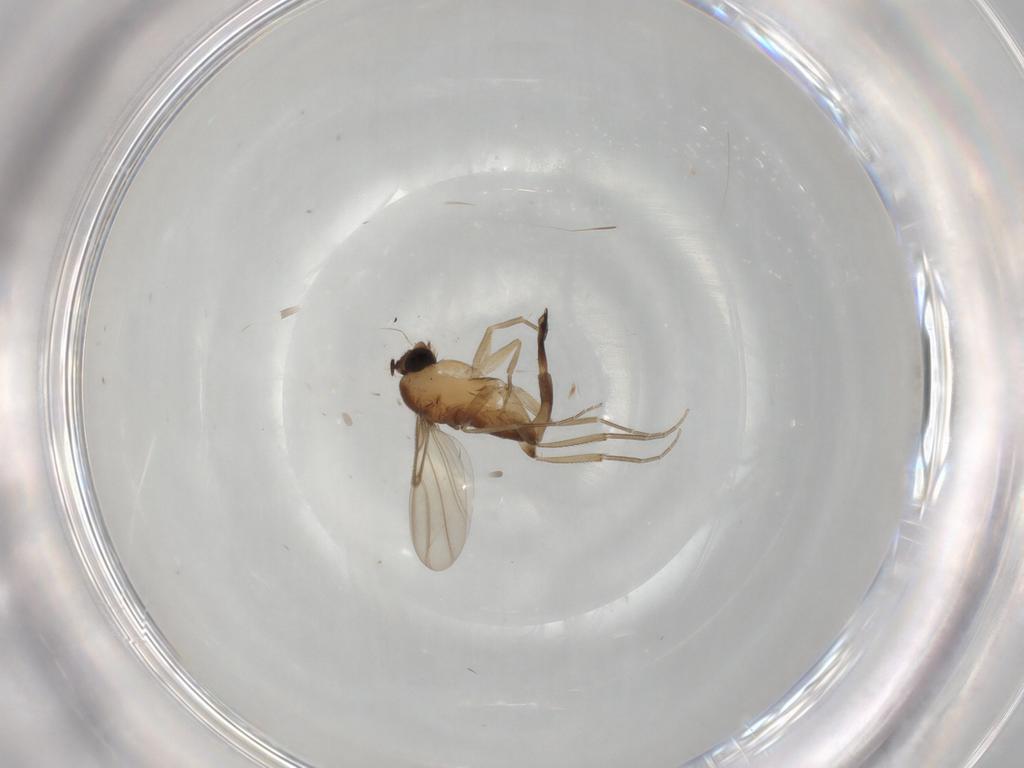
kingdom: Animalia
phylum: Arthropoda
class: Insecta
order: Diptera
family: Phoridae
